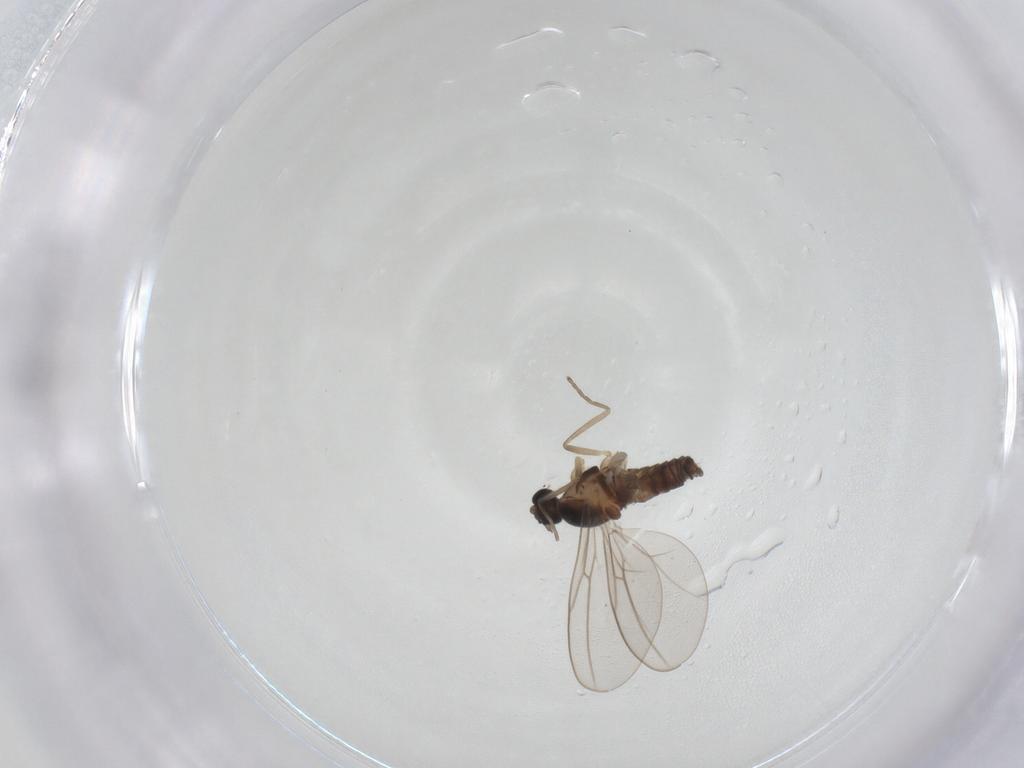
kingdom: Animalia
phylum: Arthropoda
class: Insecta
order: Diptera
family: Cecidomyiidae
